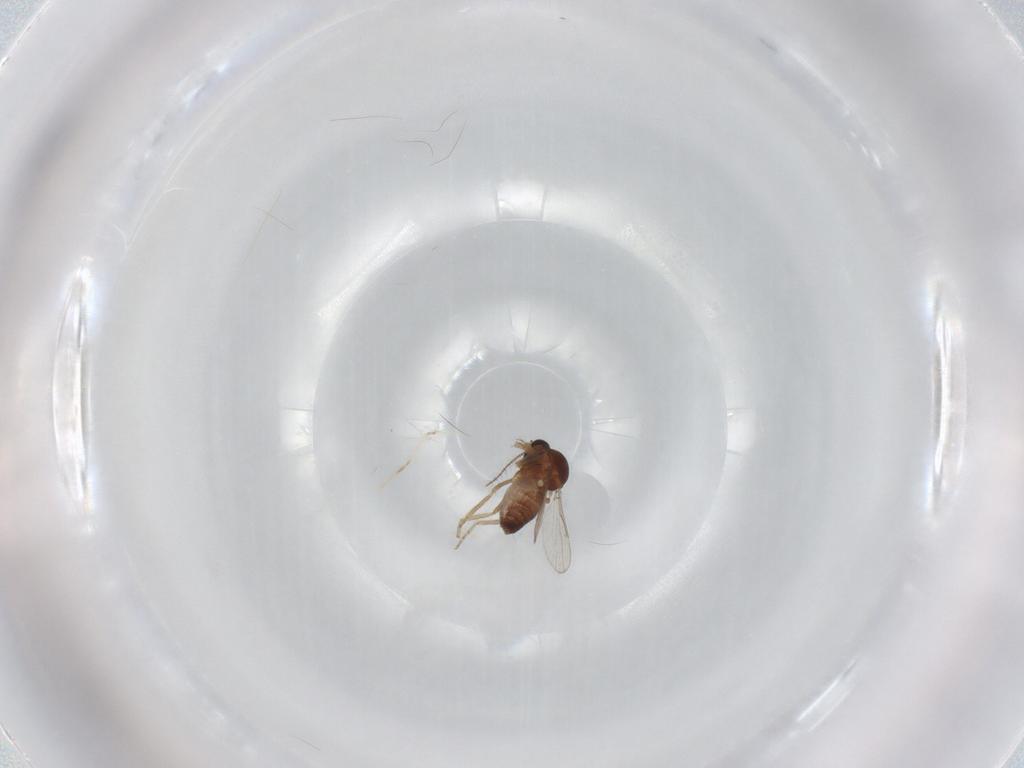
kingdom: Animalia
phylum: Arthropoda
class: Insecta
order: Diptera
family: Ceratopogonidae
